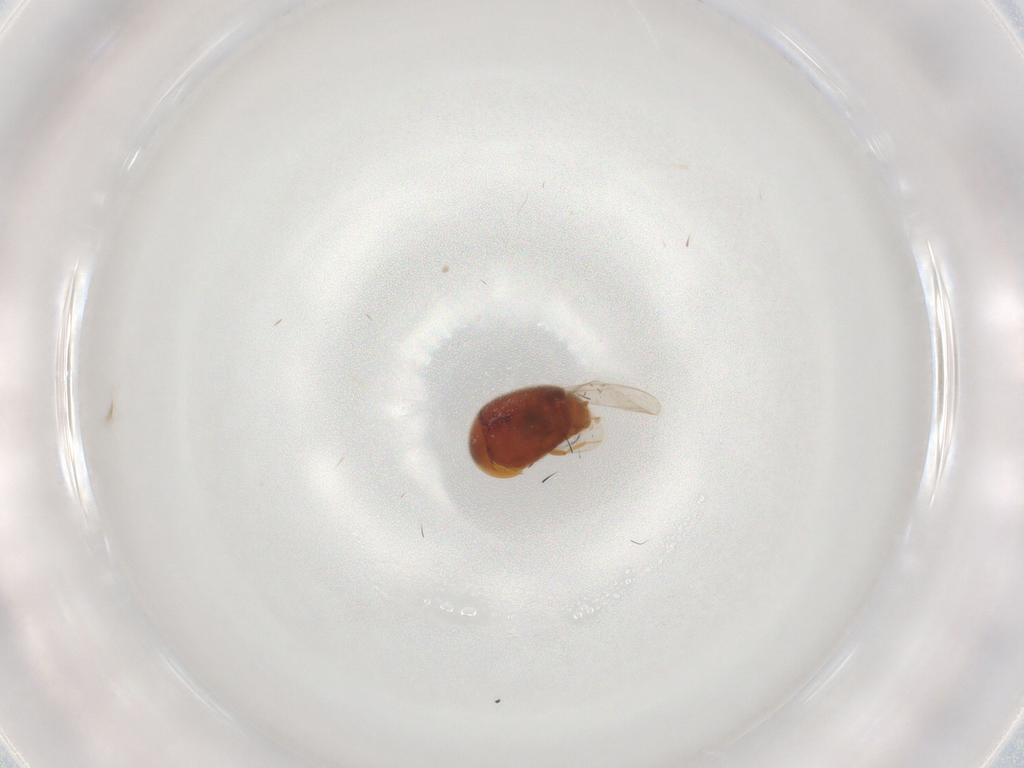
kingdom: Animalia
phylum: Arthropoda
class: Insecta
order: Coleoptera
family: Corylophidae
